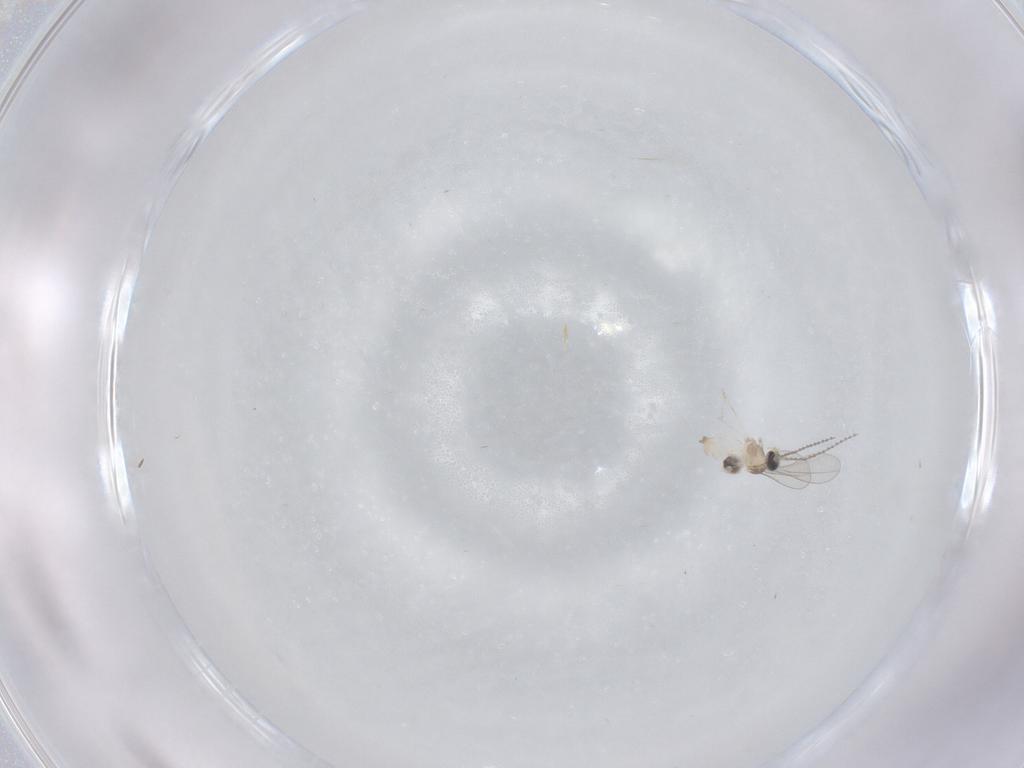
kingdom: Animalia
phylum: Arthropoda
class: Insecta
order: Diptera
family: Cecidomyiidae
